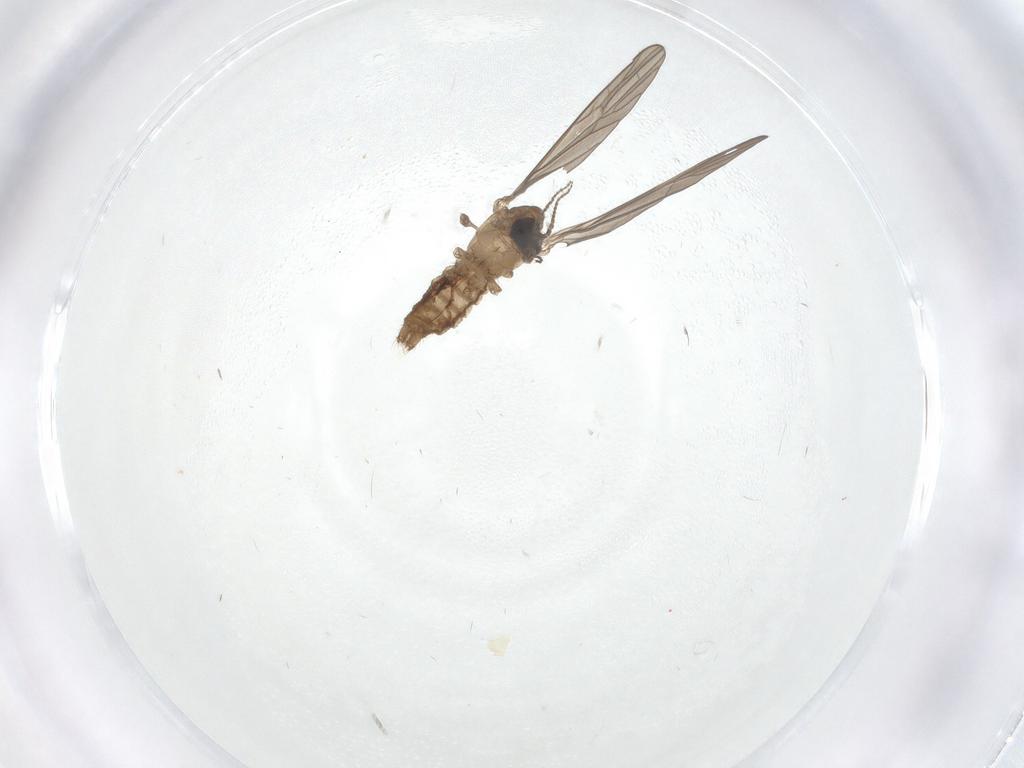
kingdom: Animalia
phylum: Arthropoda
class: Insecta
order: Diptera
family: Limoniidae
